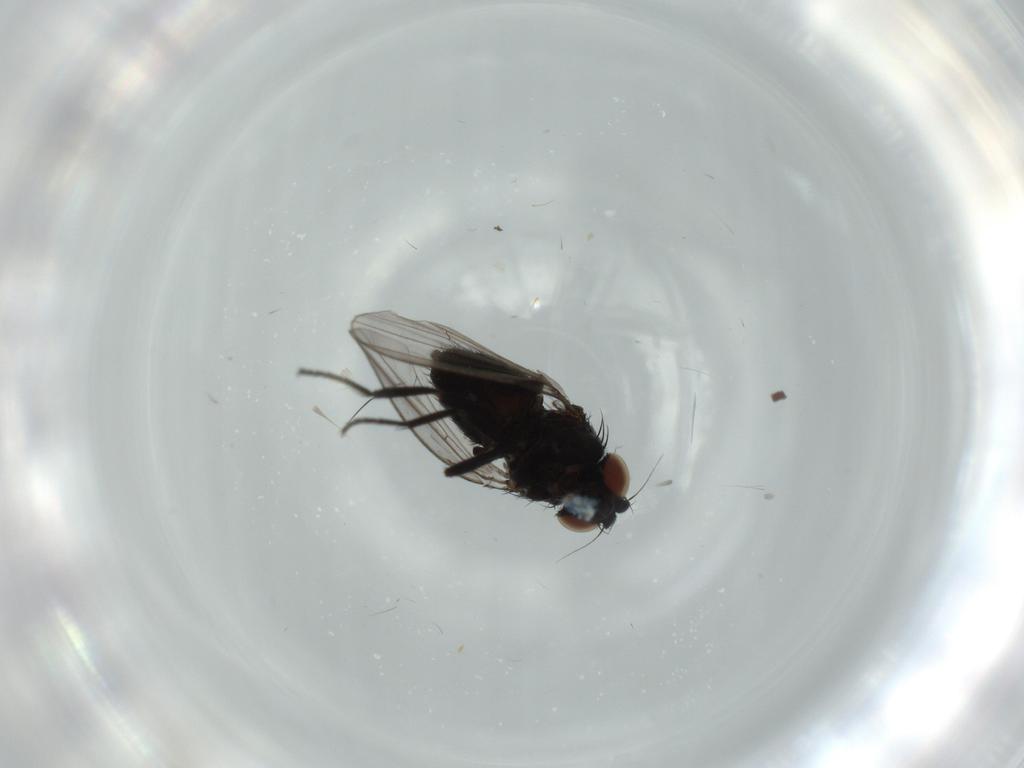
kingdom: Animalia
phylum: Arthropoda
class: Insecta
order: Diptera
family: Milichiidae
